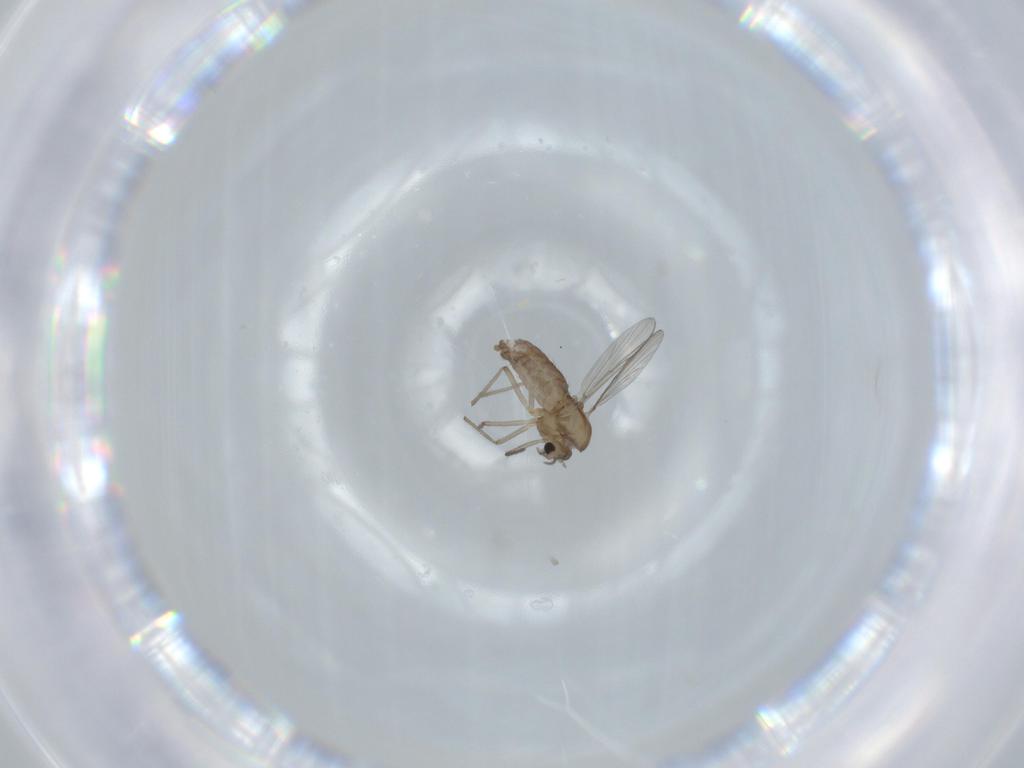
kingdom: Animalia
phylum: Arthropoda
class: Insecta
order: Diptera
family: Chironomidae
